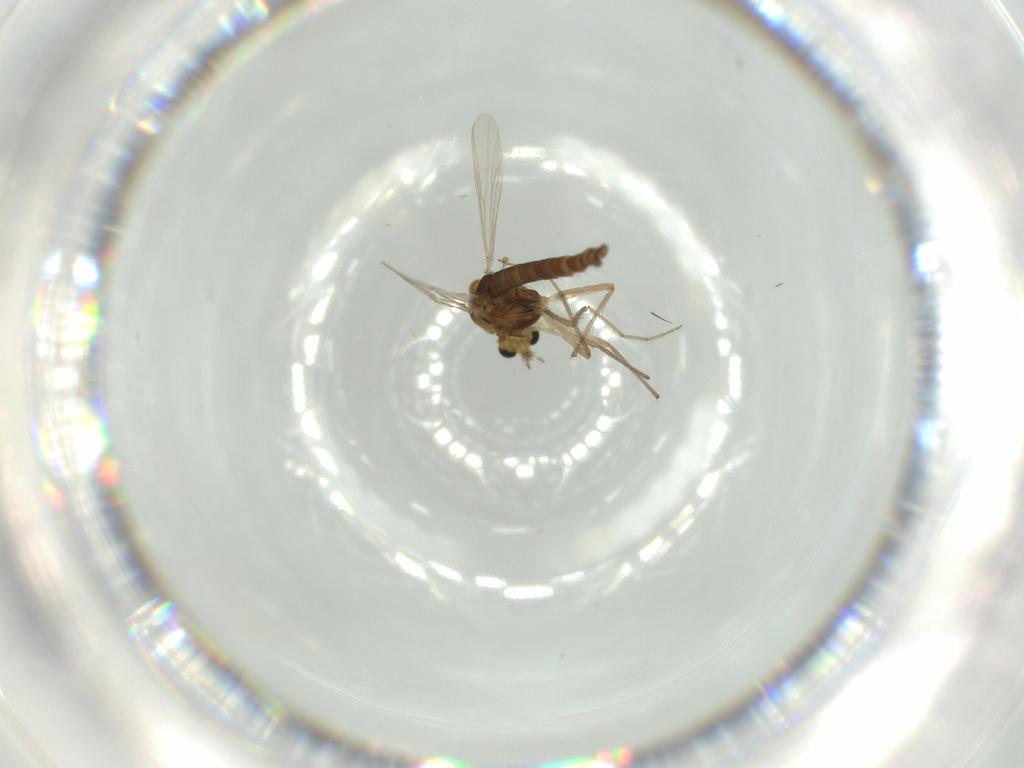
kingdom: Animalia
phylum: Arthropoda
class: Insecta
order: Diptera
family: Chironomidae
